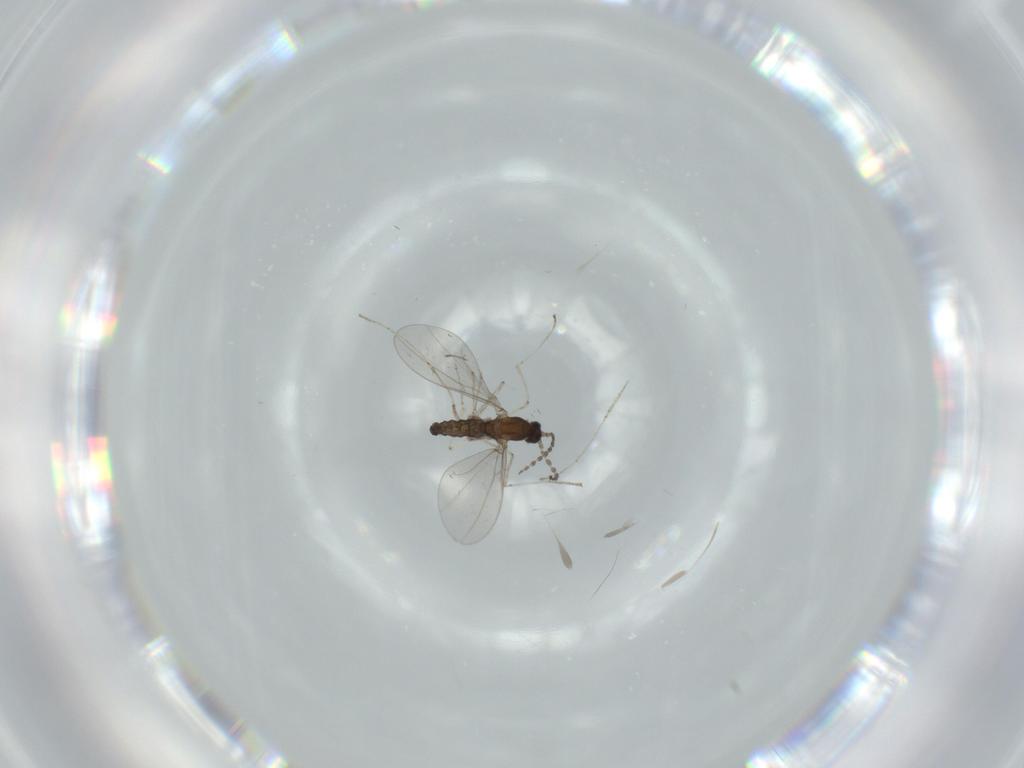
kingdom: Animalia
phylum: Arthropoda
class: Insecta
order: Diptera
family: Cecidomyiidae
